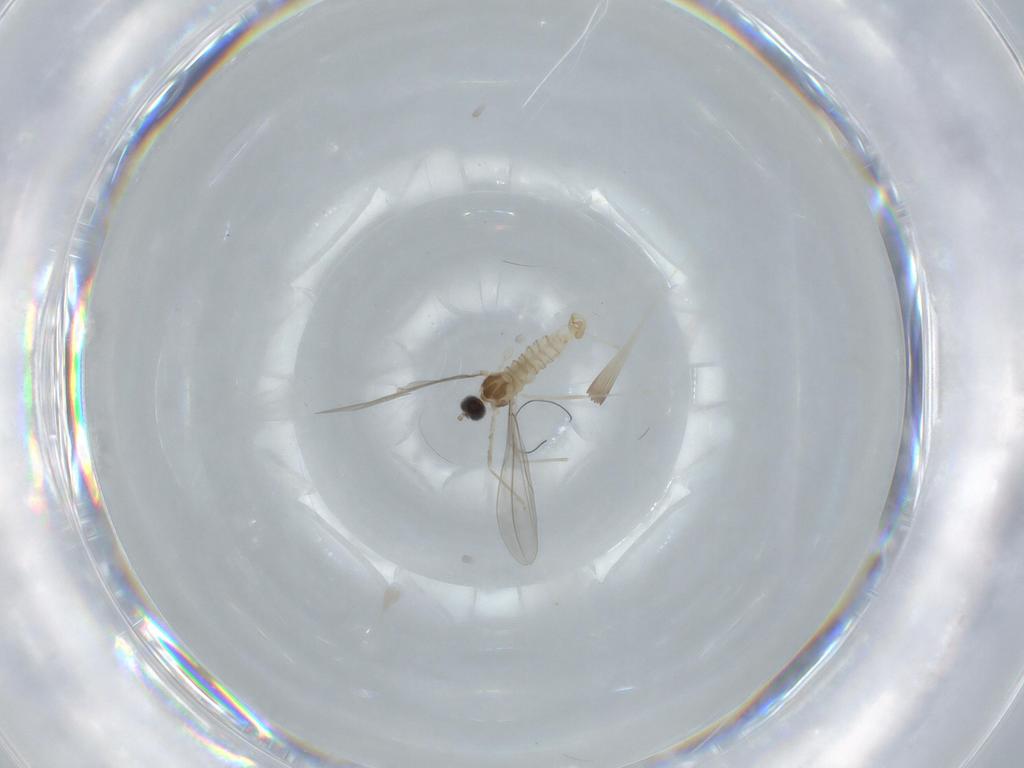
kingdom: Animalia
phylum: Arthropoda
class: Insecta
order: Diptera
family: Cecidomyiidae
